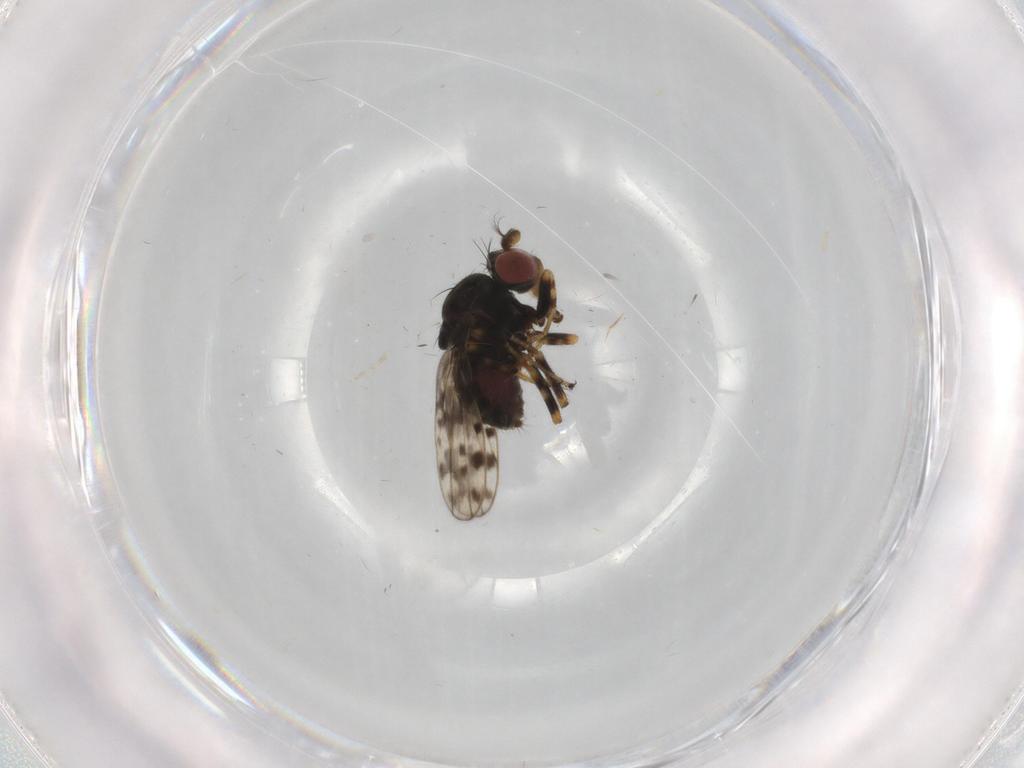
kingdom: Animalia
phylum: Arthropoda
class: Insecta
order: Diptera
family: Ephydridae
